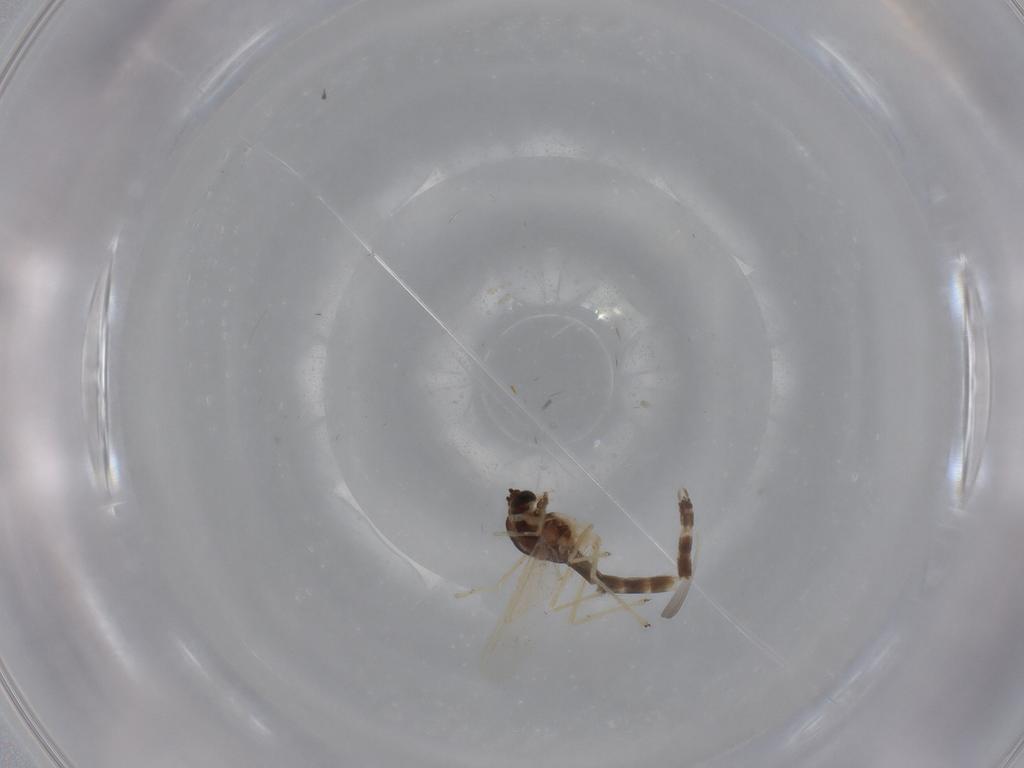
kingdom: Animalia
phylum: Arthropoda
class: Insecta
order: Diptera
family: Chironomidae
